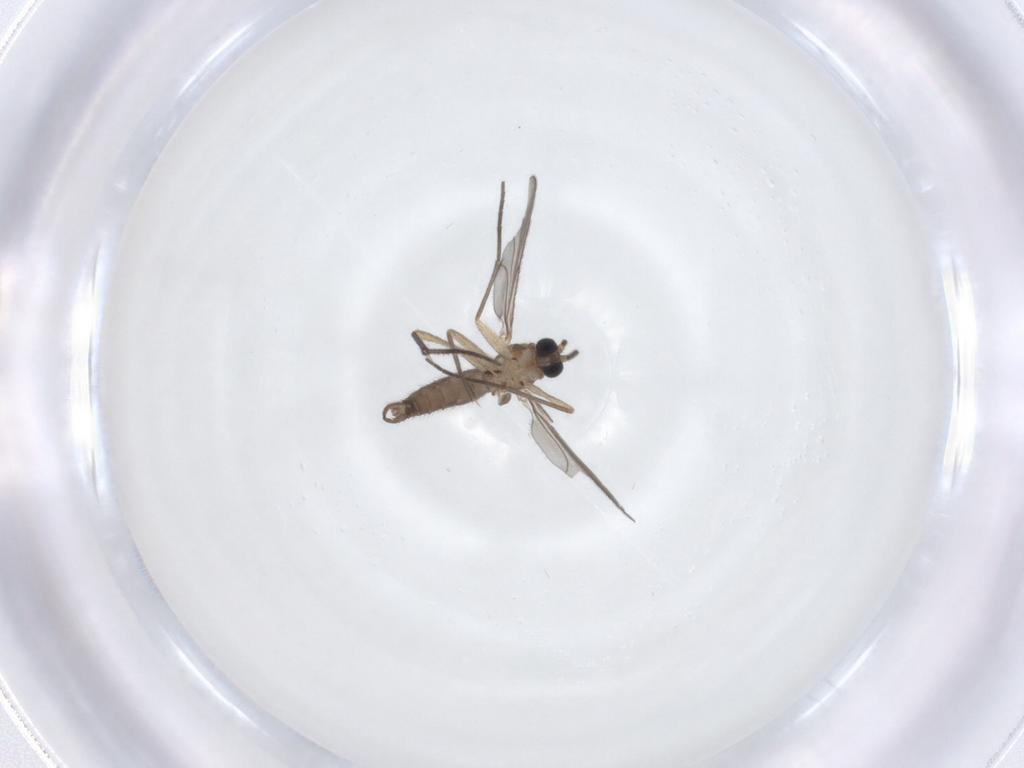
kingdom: Animalia
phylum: Arthropoda
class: Insecta
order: Diptera
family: Sciaridae
